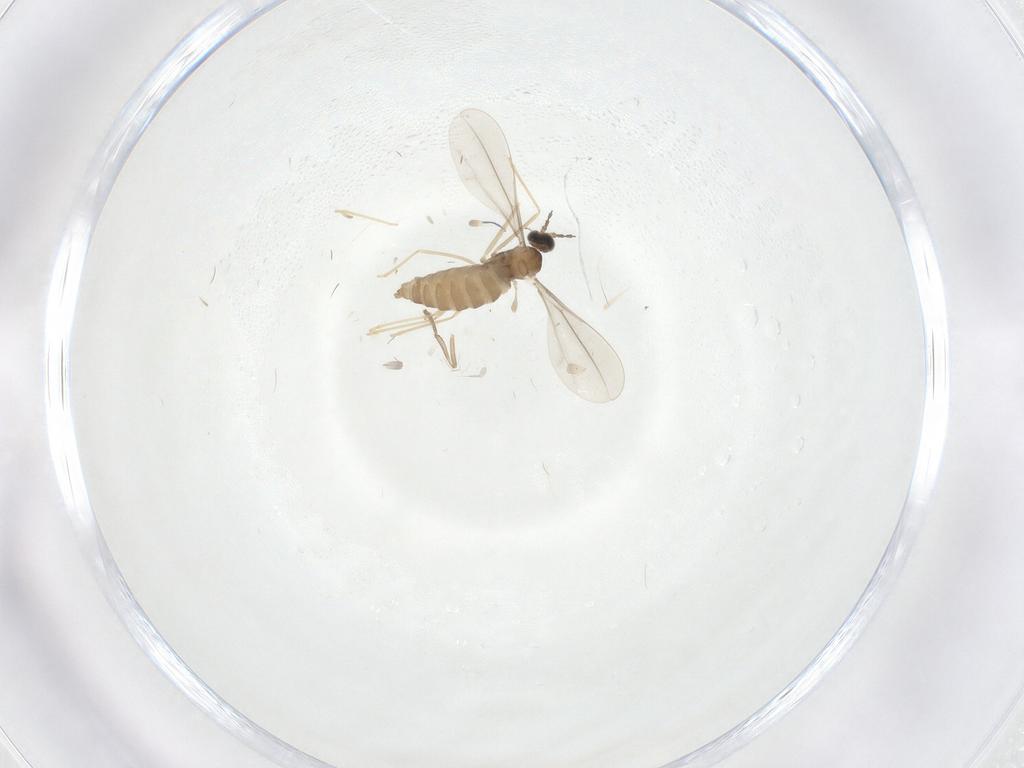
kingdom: Animalia
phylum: Arthropoda
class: Insecta
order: Diptera
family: Cecidomyiidae
